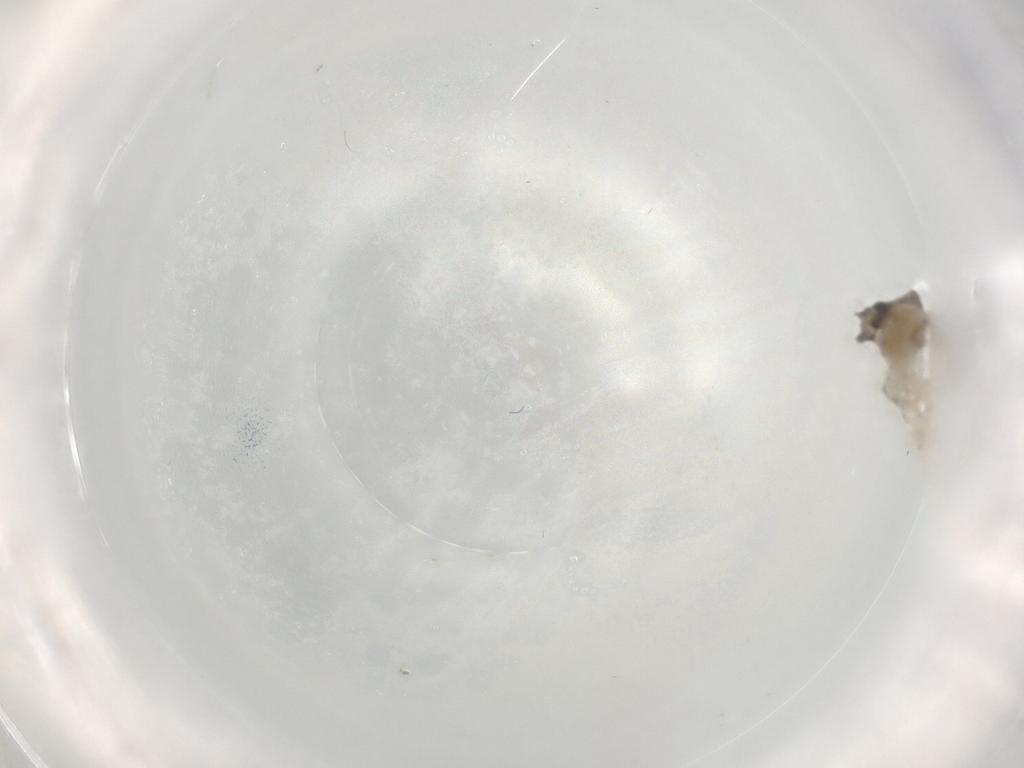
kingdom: Animalia
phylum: Arthropoda
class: Insecta
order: Diptera
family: Ceratopogonidae
